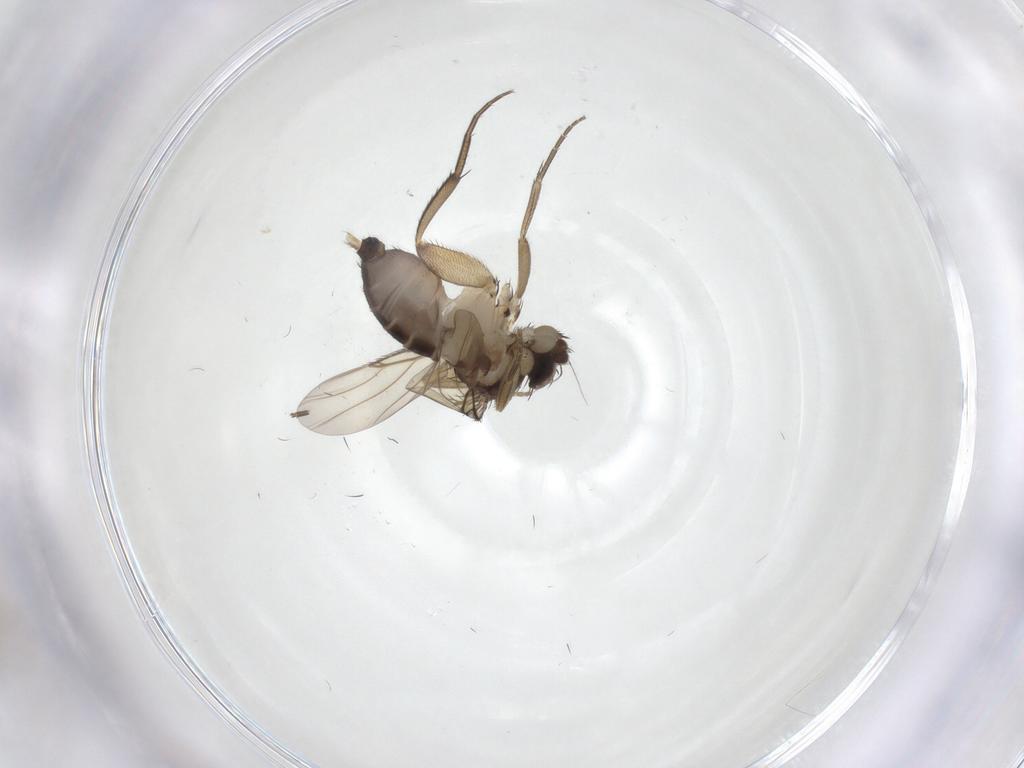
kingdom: Animalia
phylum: Arthropoda
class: Insecta
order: Diptera
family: Phoridae
